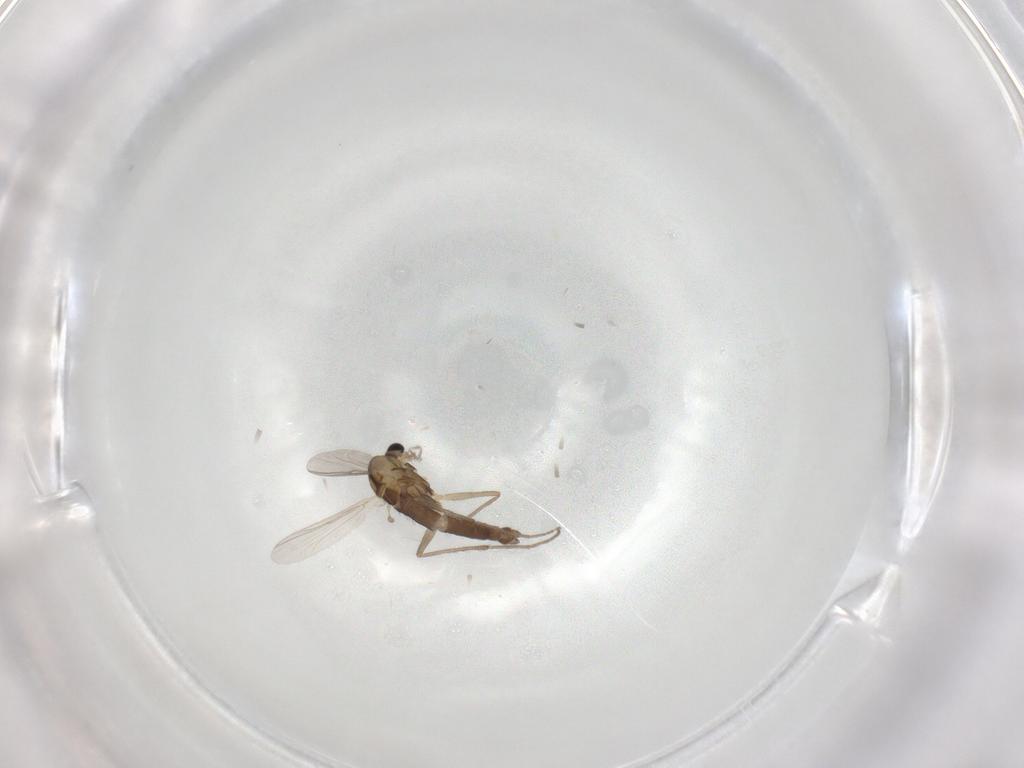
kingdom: Animalia
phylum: Arthropoda
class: Insecta
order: Diptera
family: Chironomidae
